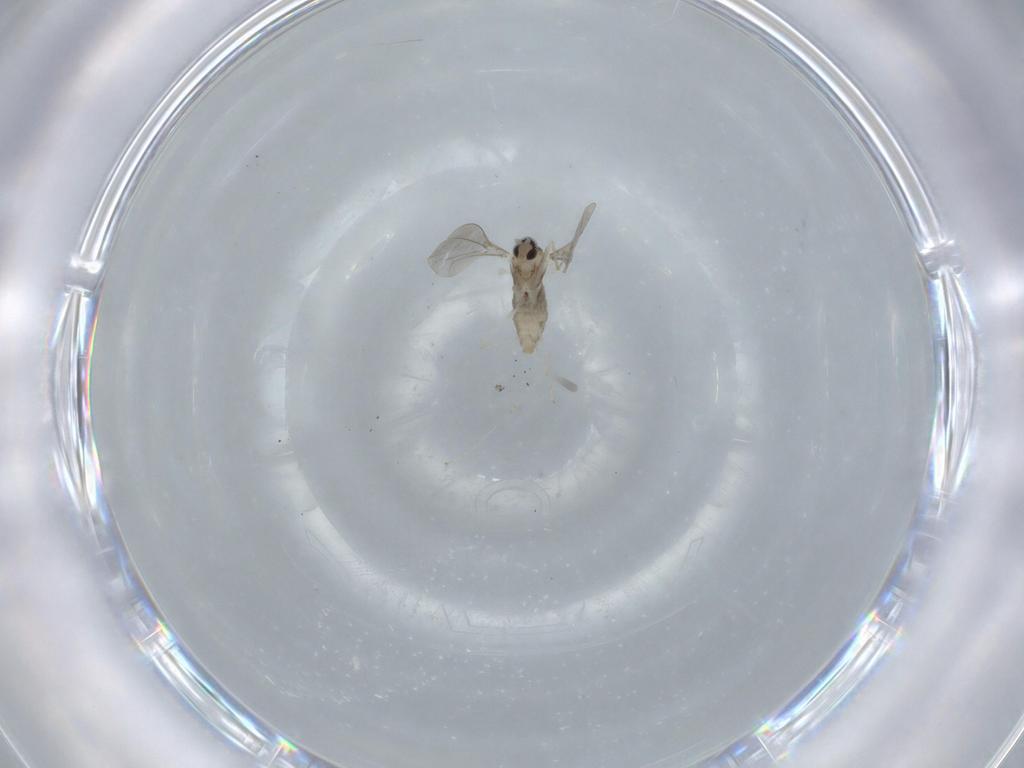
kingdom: Animalia
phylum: Arthropoda
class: Insecta
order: Diptera
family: Cecidomyiidae
